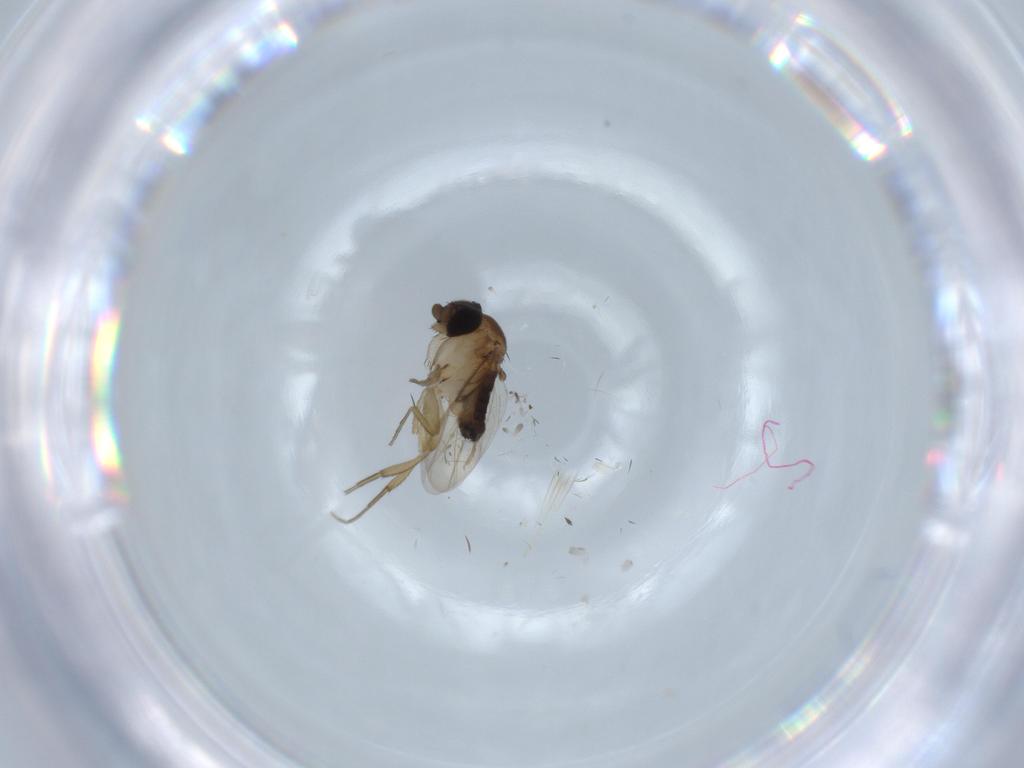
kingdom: Animalia
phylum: Arthropoda
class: Insecta
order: Diptera
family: Phoridae
